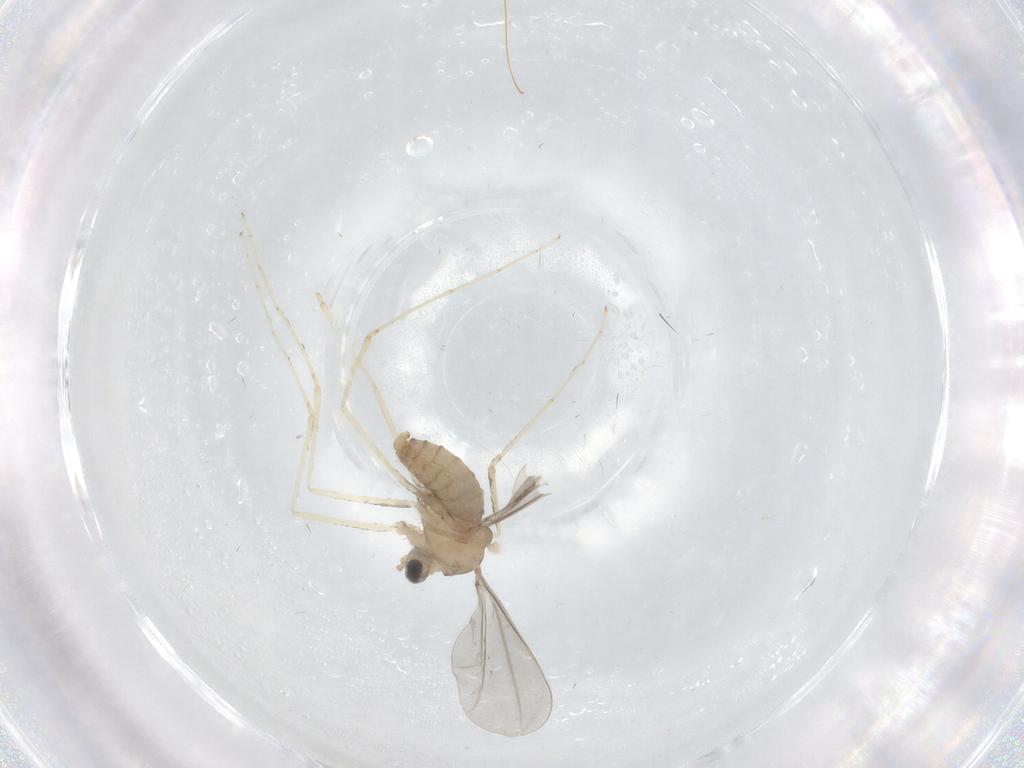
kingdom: Animalia
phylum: Arthropoda
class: Insecta
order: Diptera
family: Cecidomyiidae
